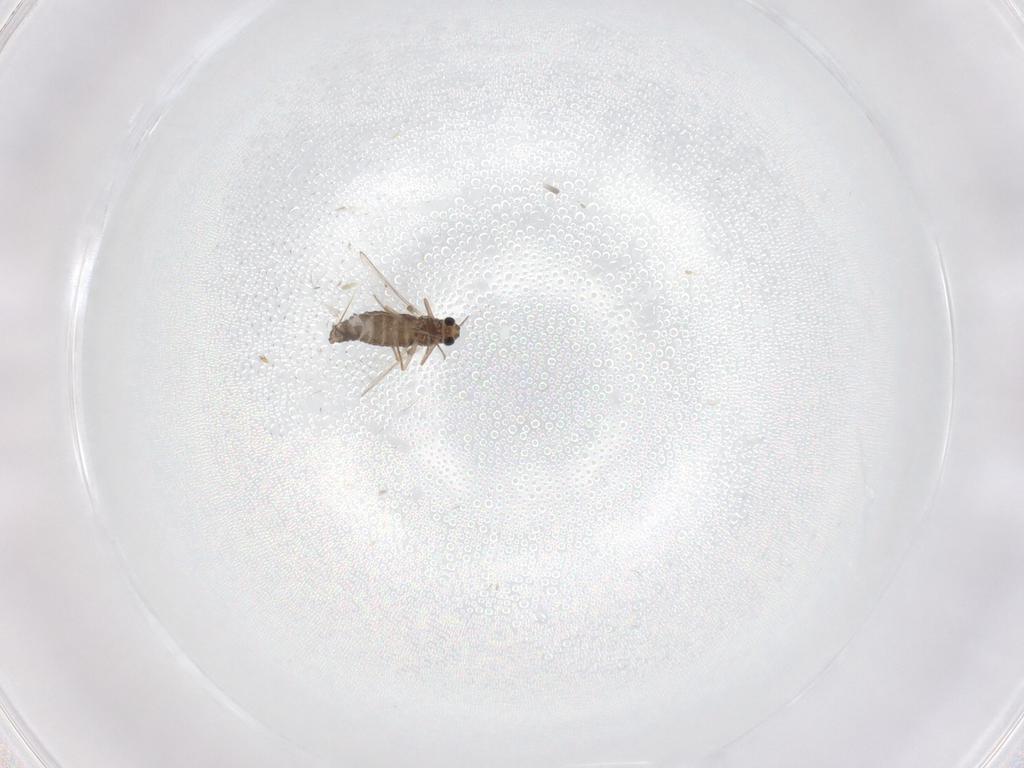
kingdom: Animalia
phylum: Arthropoda
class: Insecta
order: Diptera
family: Chironomidae
